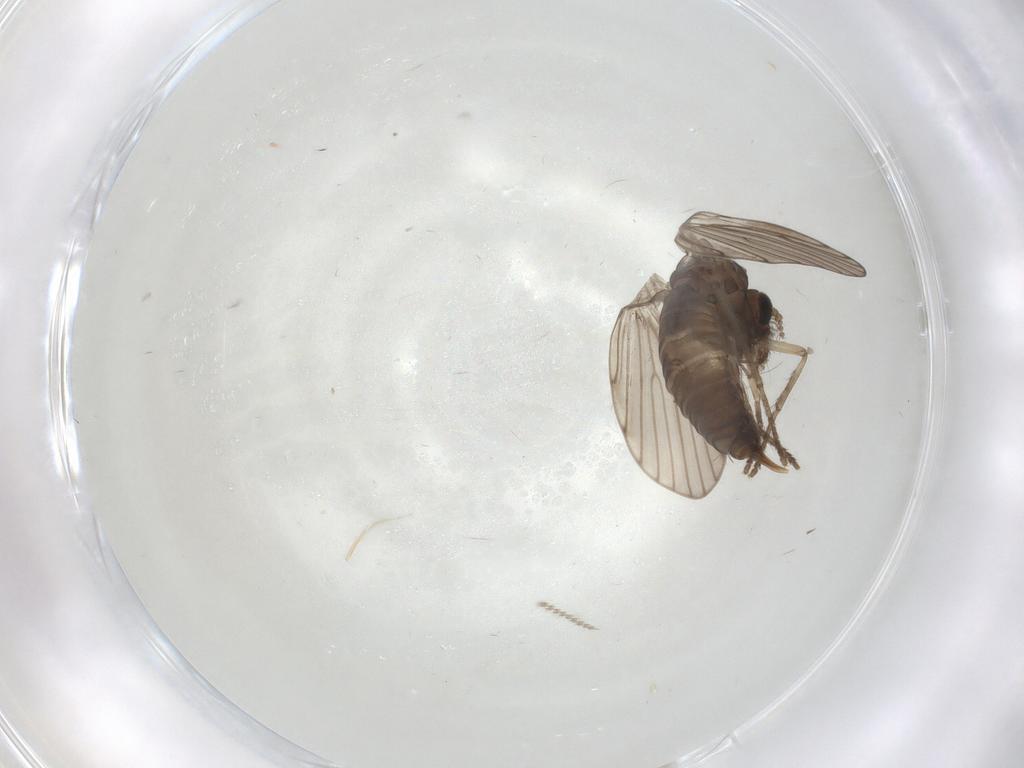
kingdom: Animalia
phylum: Arthropoda
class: Insecta
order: Diptera
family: Psychodidae
